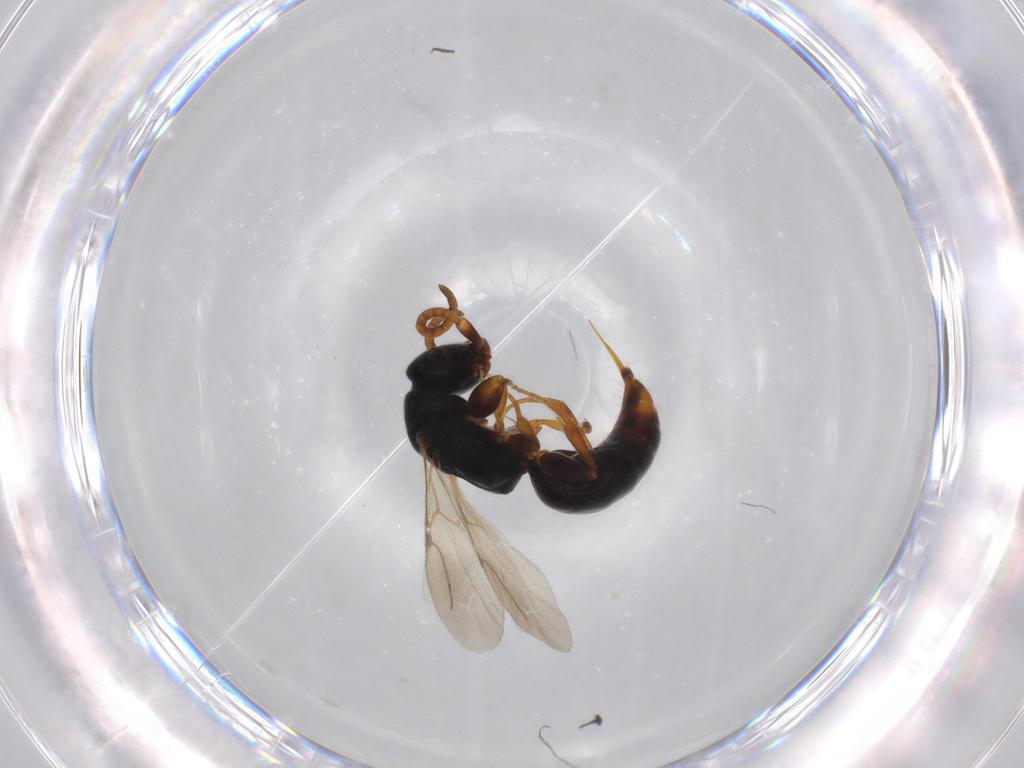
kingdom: Animalia
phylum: Arthropoda
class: Insecta
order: Hymenoptera
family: Bethylidae
